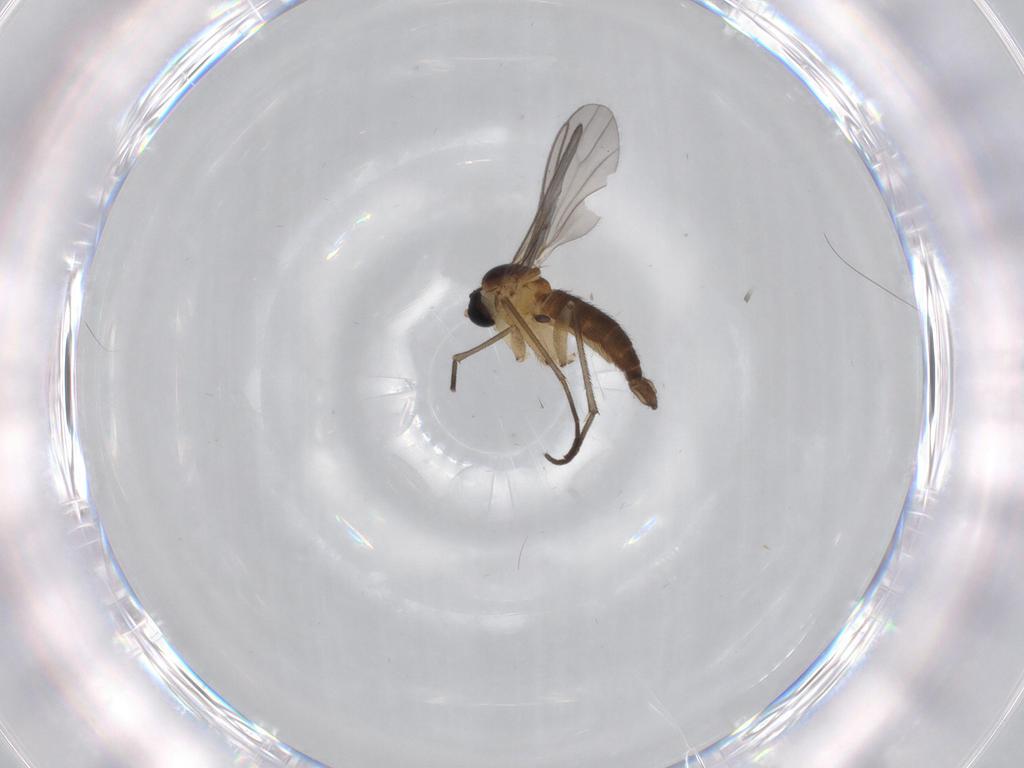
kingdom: Animalia
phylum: Arthropoda
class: Insecta
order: Diptera
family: Sciaridae
